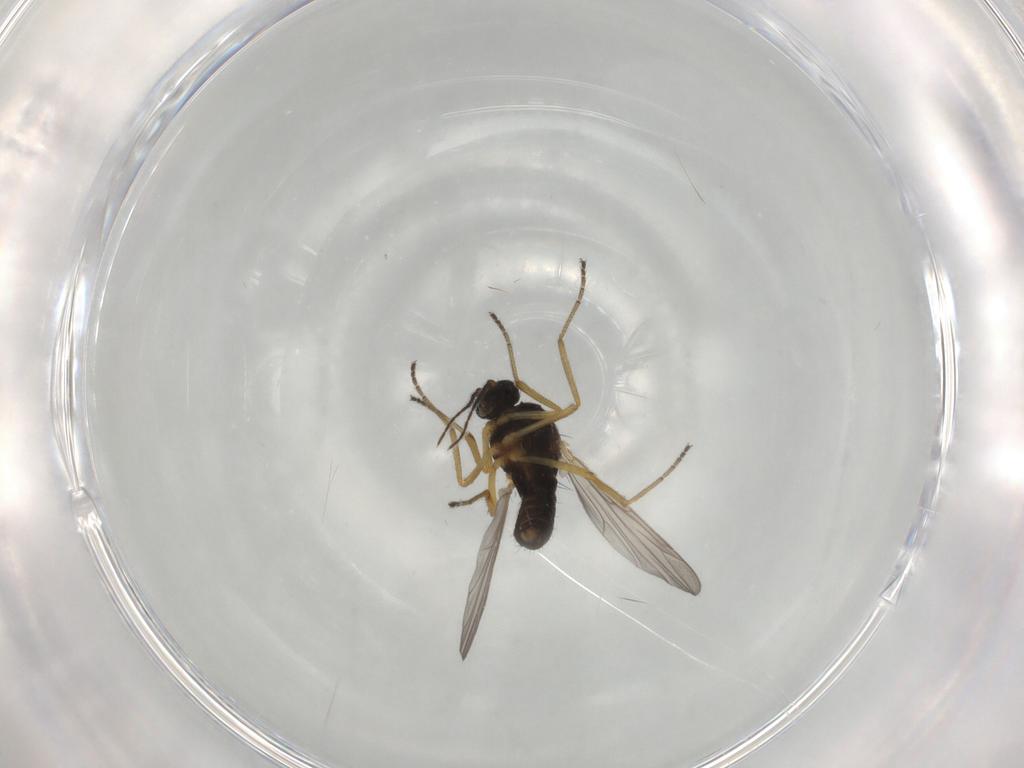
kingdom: Animalia
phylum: Arthropoda
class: Insecta
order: Diptera
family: Ceratopogonidae
